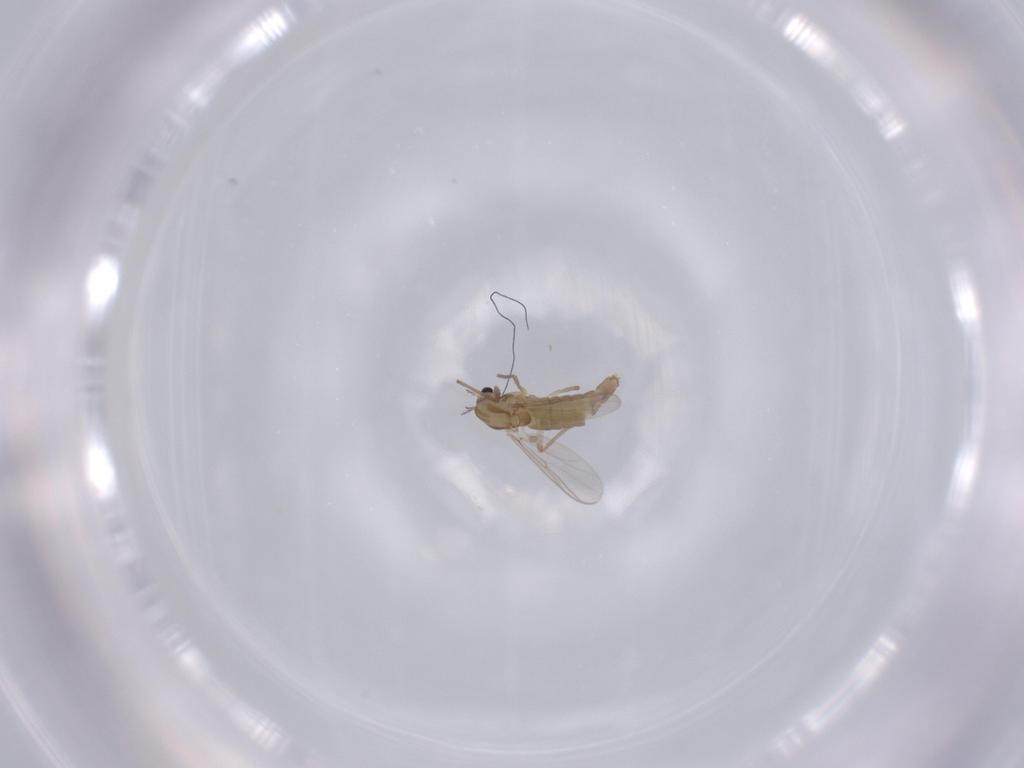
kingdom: Animalia
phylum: Arthropoda
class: Insecta
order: Diptera
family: Chironomidae
